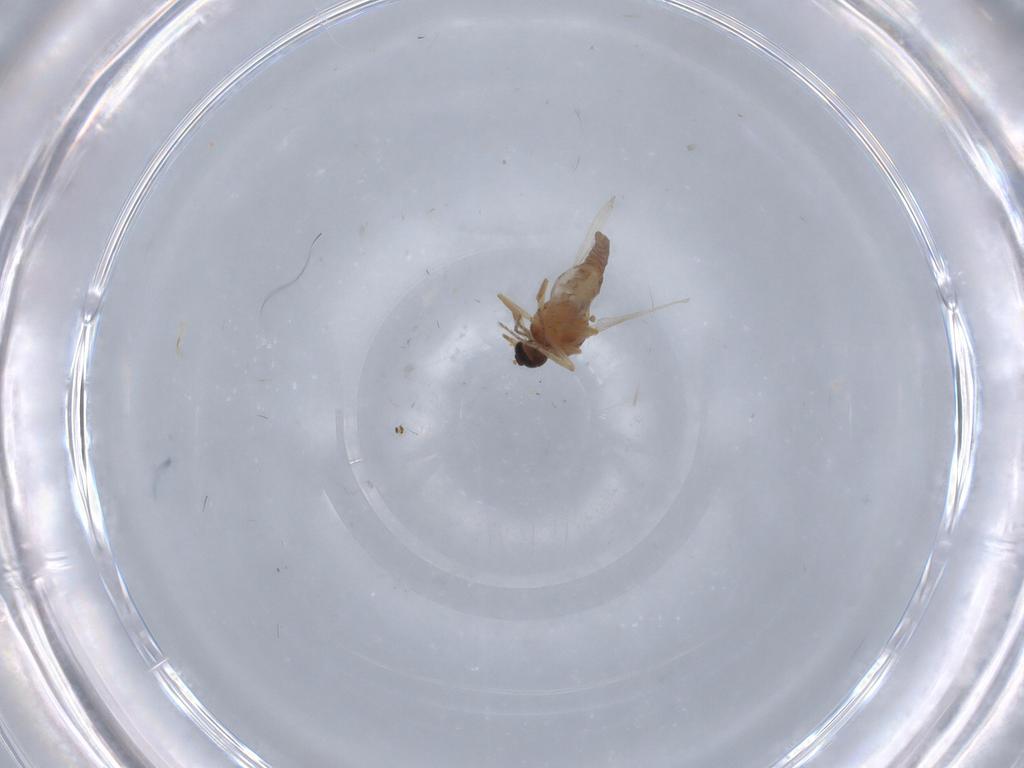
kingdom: Animalia
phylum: Arthropoda
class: Insecta
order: Diptera
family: Ceratopogonidae
